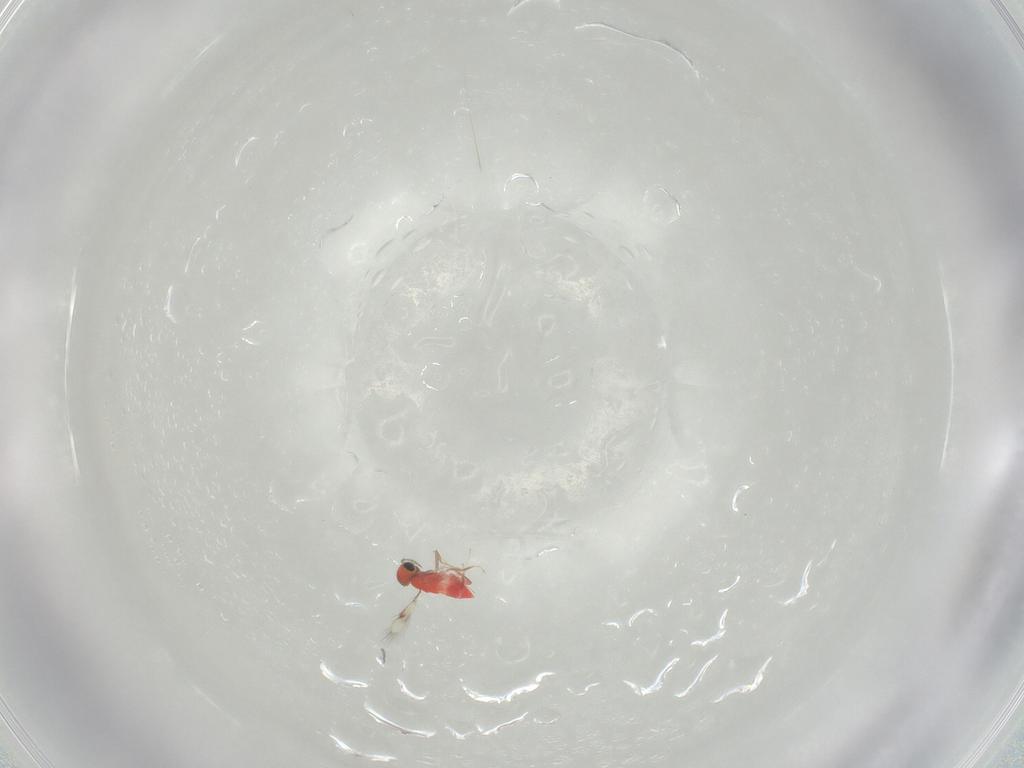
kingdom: Animalia
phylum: Arthropoda
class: Insecta
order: Hymenoptera
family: Trichogrammatidae
